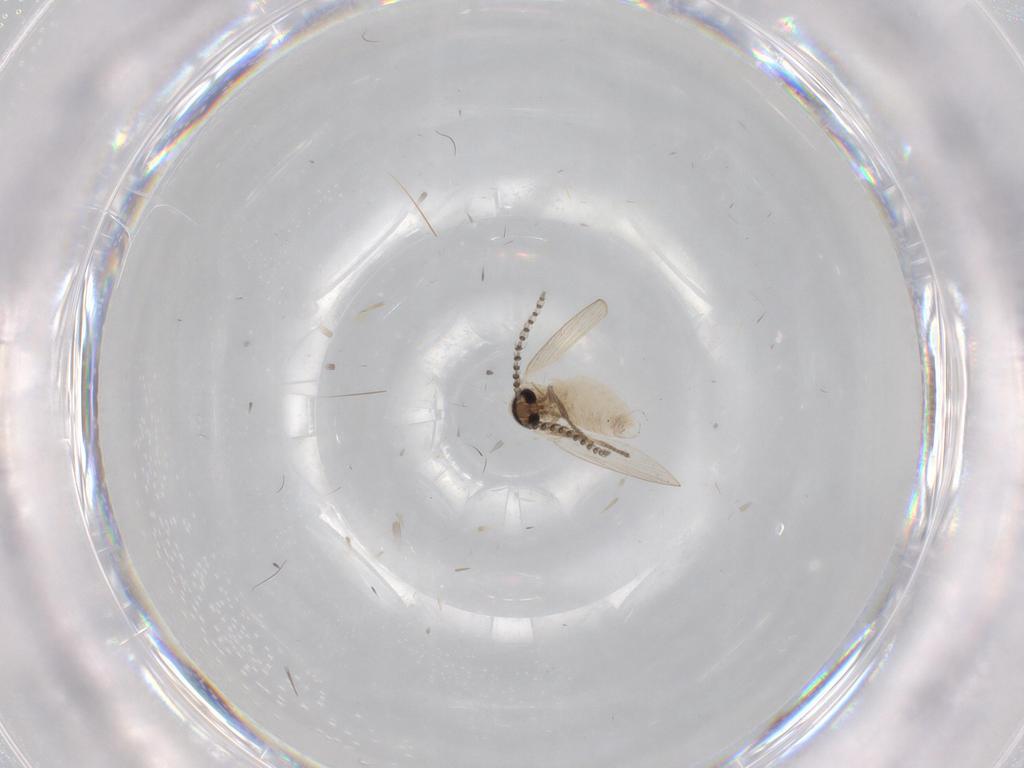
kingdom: Animalia
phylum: Arthropoda
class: Insecta
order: Diptera
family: Psychodidae
